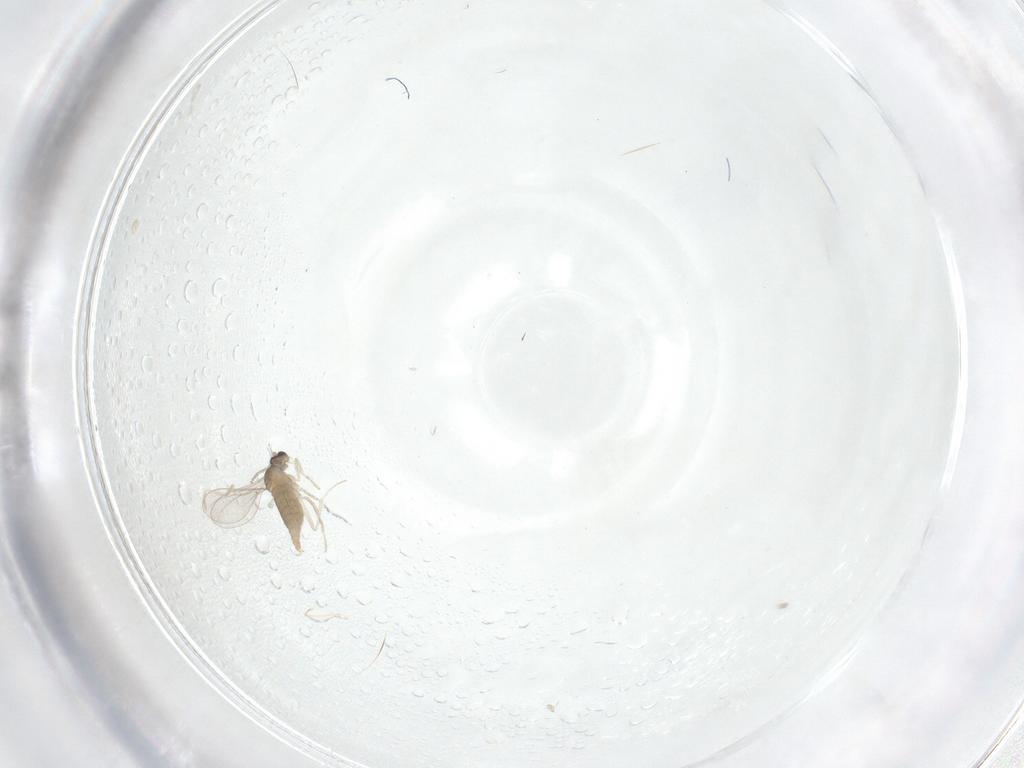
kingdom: Animalia
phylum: Arthropoda
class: Insecta
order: Diptera
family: Cecidomyiidae
